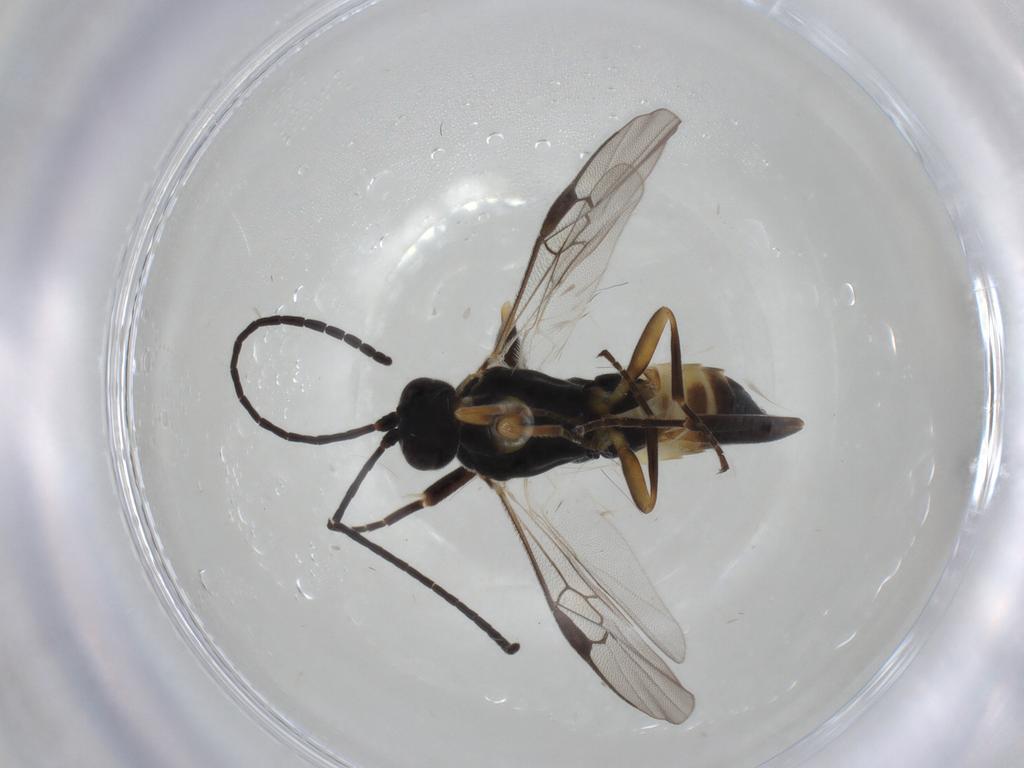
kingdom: Animalia
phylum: Arthropoda
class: Insecta
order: Hymenoptera
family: Braconidae
